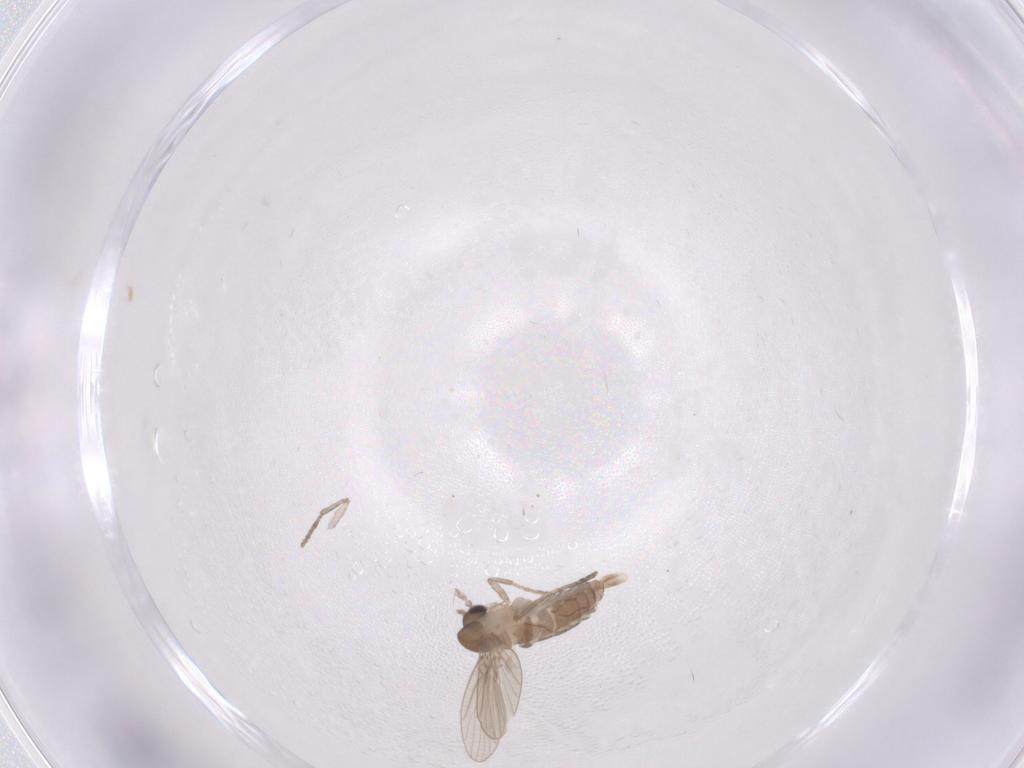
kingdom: Animalia
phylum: Arthropoda
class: Insecta
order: Diptera
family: Psychodidae
